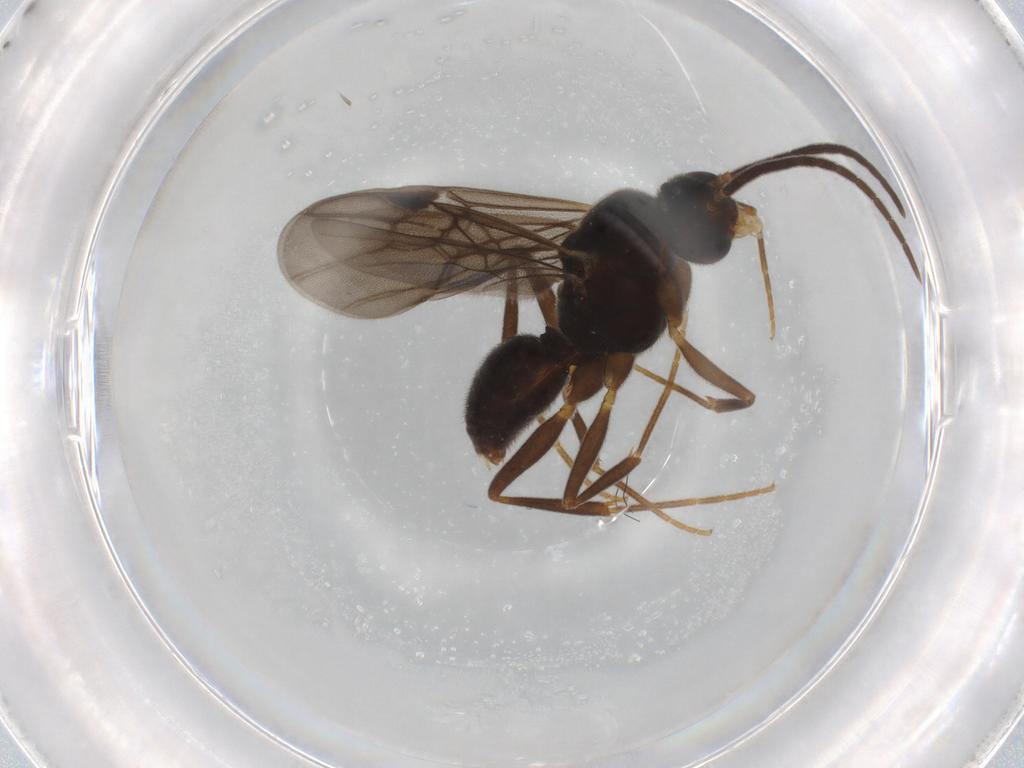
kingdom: Animalia
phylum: Arthropoda
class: Insecta
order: Hymenoptera
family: Formicidae
